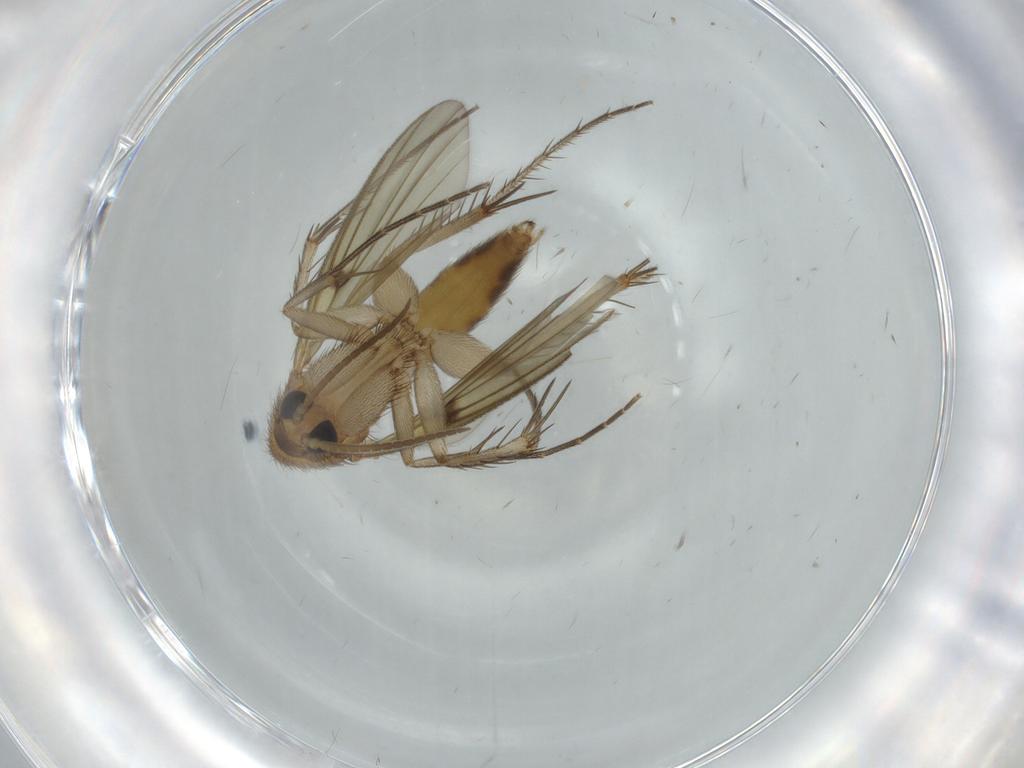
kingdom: Animalia
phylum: Arthropoda
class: Insecta
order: Diptera
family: Mycetophilidae
